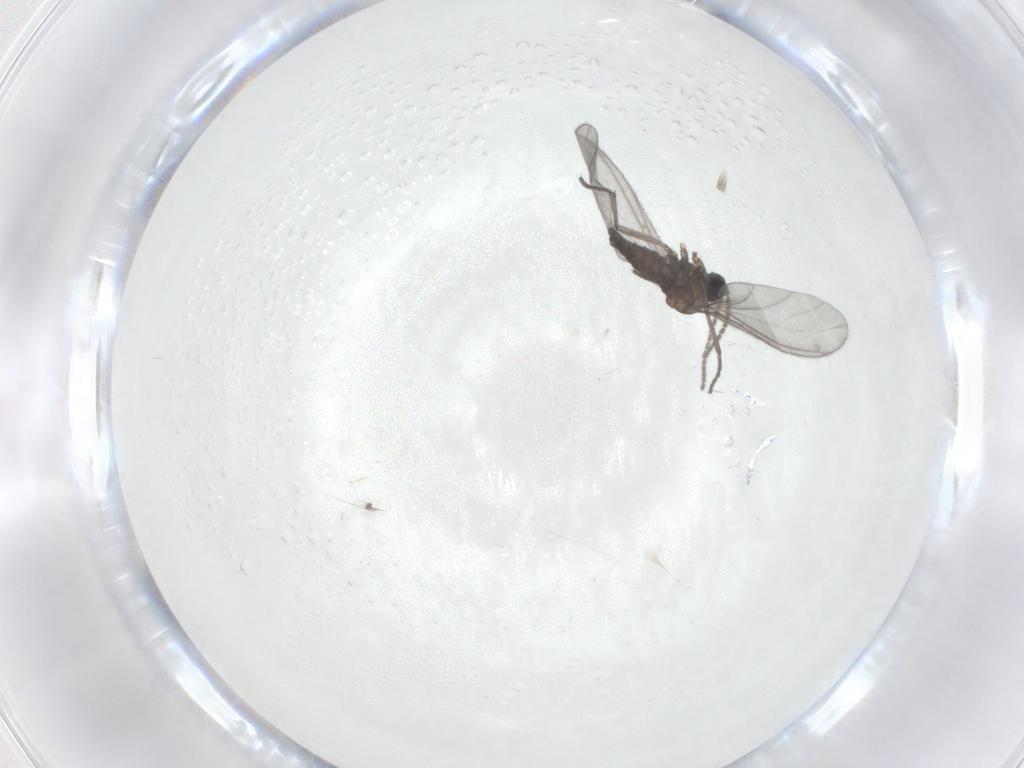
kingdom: Animalia
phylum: Arthropoda
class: Insecta
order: Diptera
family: Sciaridae
